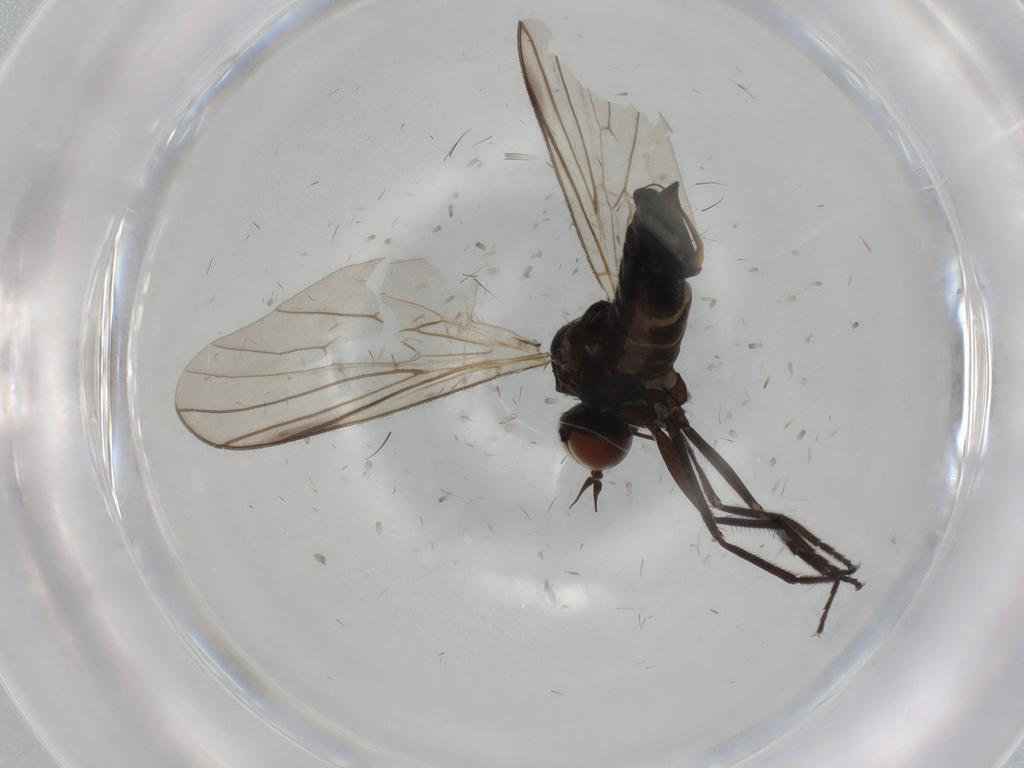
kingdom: Animalia
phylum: Arthropoda
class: Insecta
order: Diptera
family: Empididae
